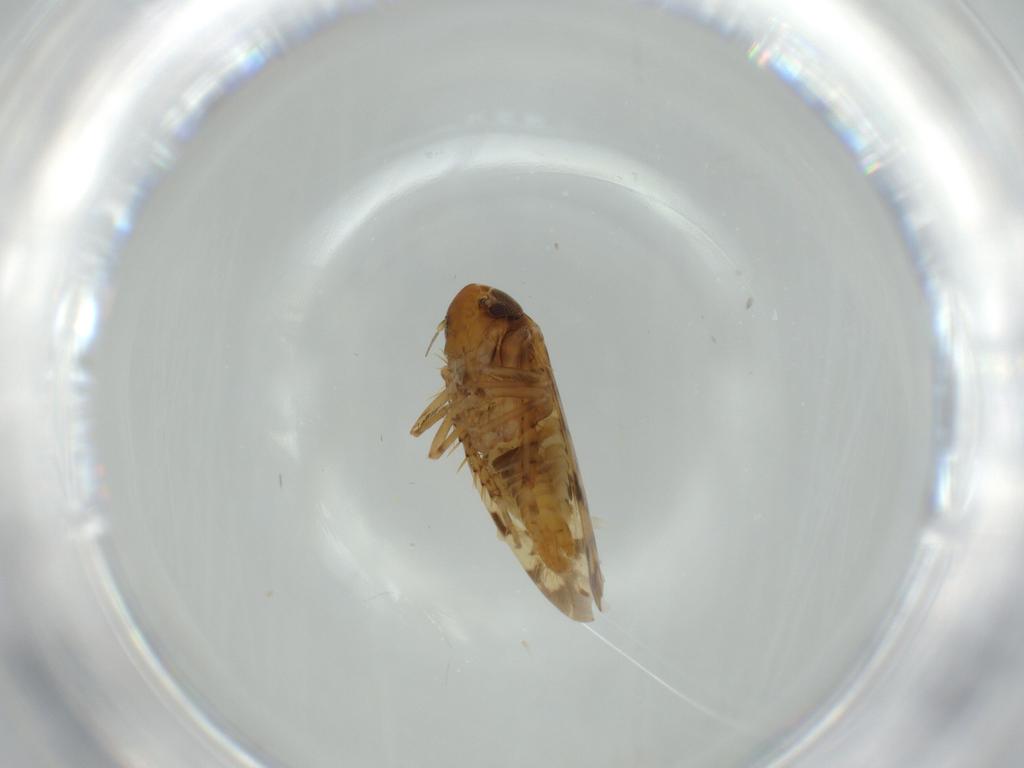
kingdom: Animalia
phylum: Arthropoda
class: Insecta
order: Hemiptera
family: Cicadellidae
